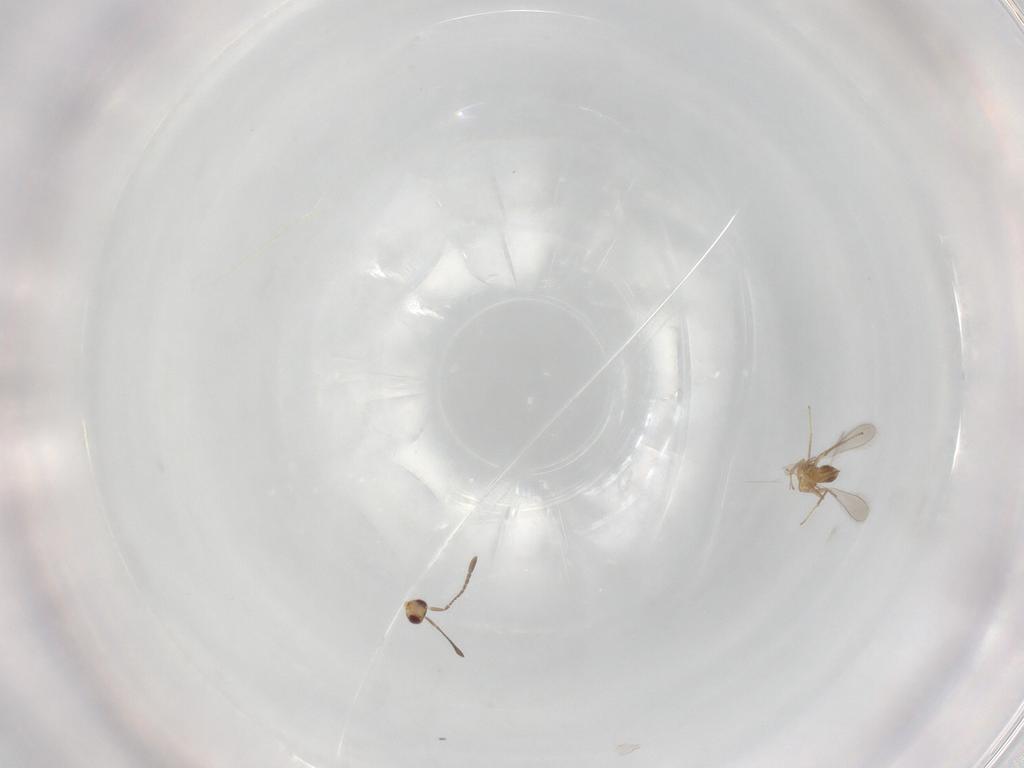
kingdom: Animalia
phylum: Arthropoda
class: Insecta
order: Hymenoptera
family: Mymaridae
